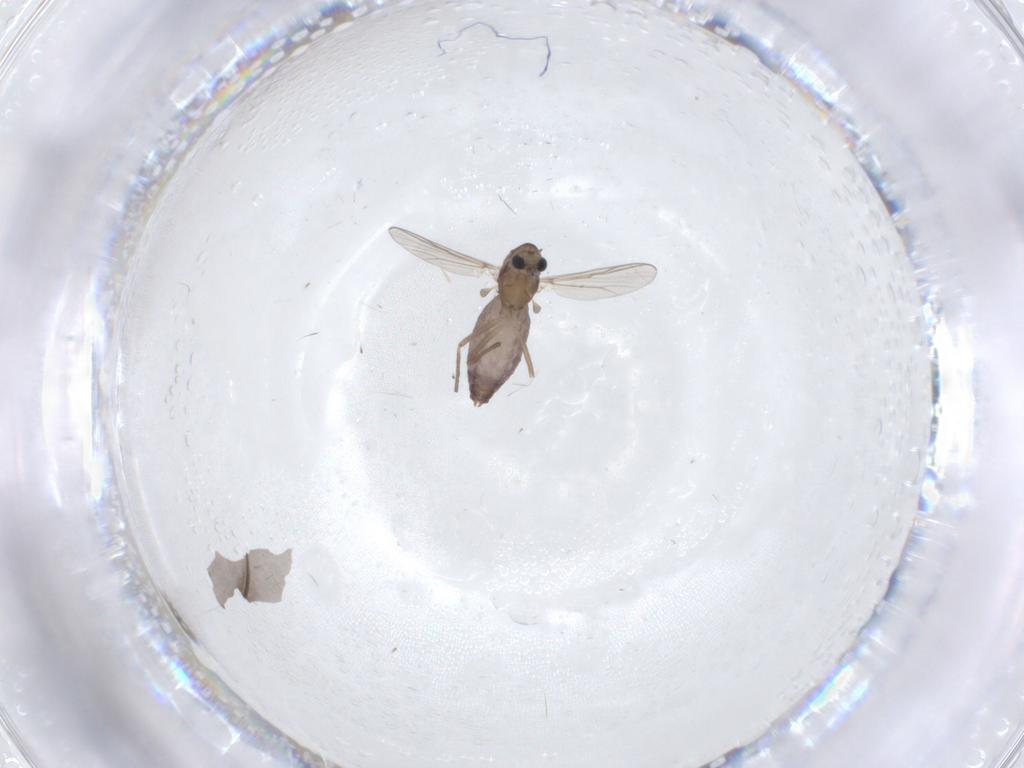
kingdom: Animalia
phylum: Arthropoda
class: Insecta
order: Diptera
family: Chironomidae
